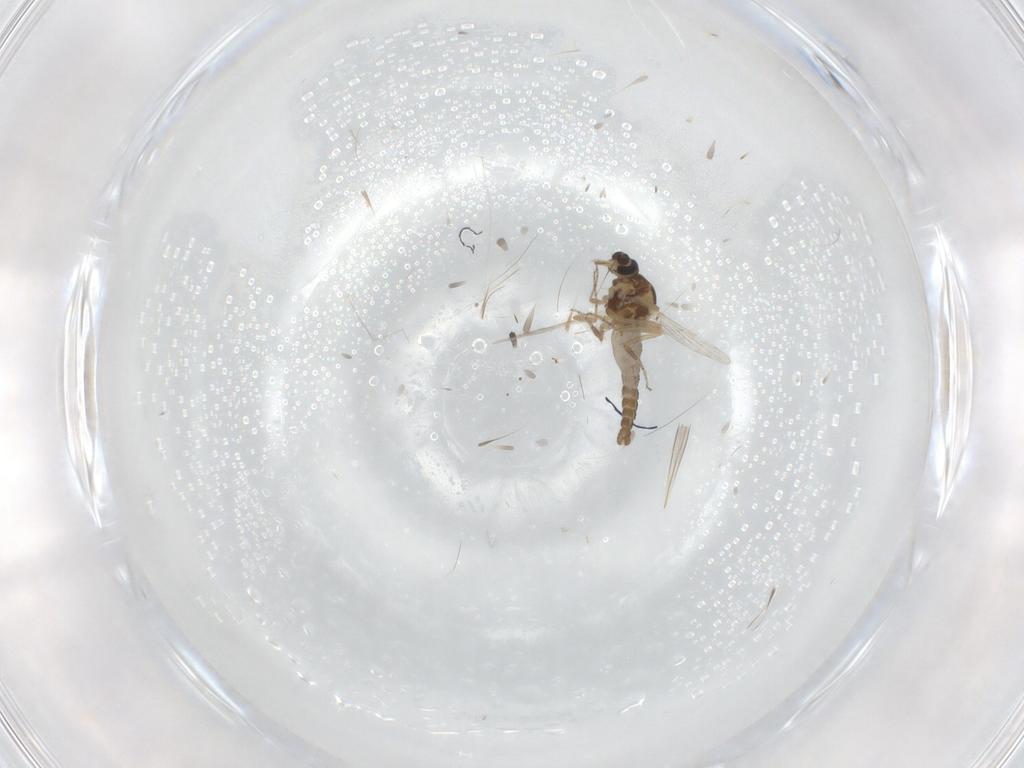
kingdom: Animalia
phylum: Arthropoda
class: Insecta
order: Diptera
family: Ceratopogonidae
